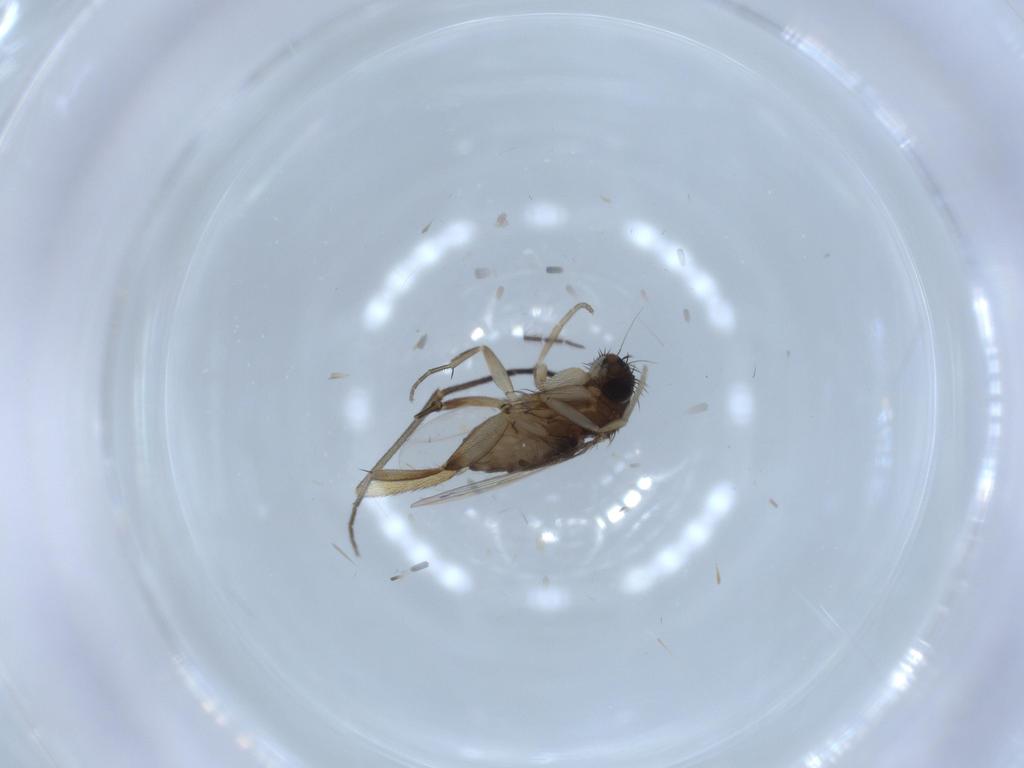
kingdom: Animalia
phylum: Arthropoda
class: Insecta
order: Diptera
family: Phoridae
